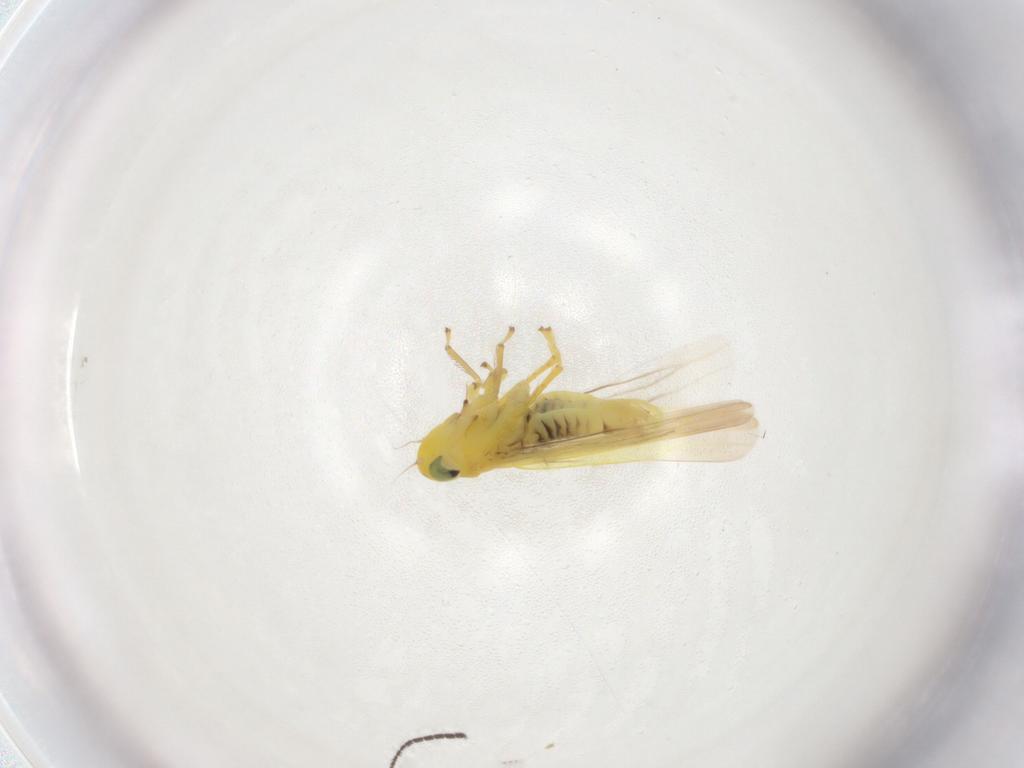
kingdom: Animalia
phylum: Arthropoda
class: Insecta
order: Hemiptera
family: Cicadellidae
